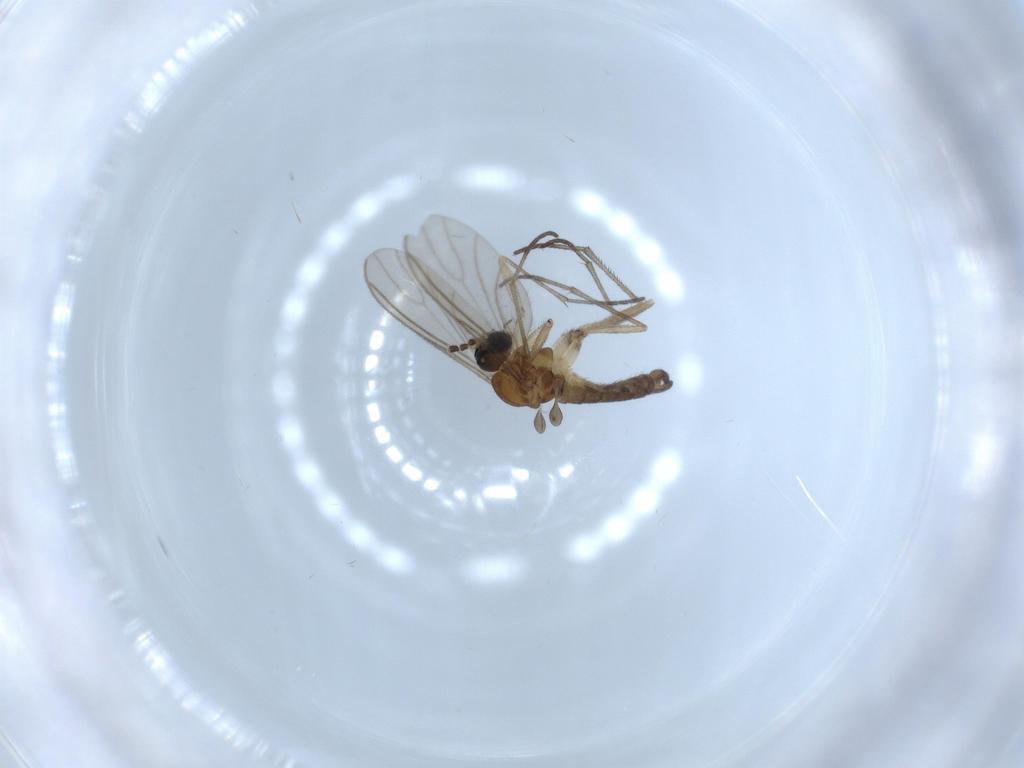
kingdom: Animalia
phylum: Arthropoda
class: Insecta
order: Diptera
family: Sciaridae
